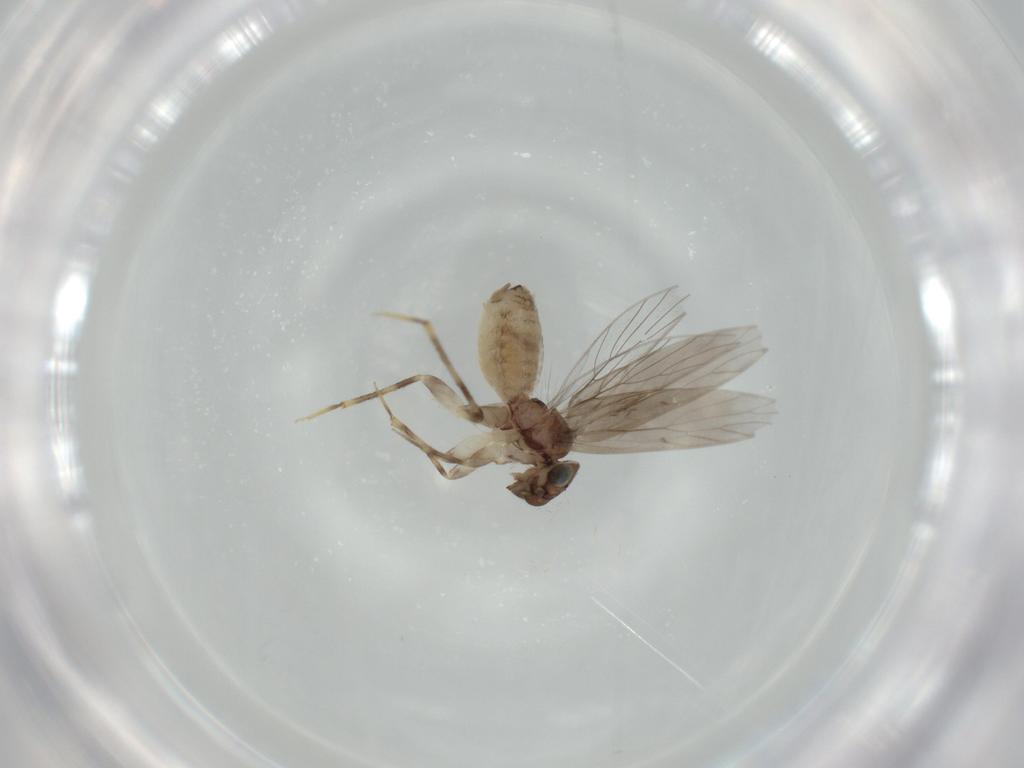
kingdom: Animalia
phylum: Arthropoda
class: Insecta
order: Psocodea
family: Lepidopsocidae
